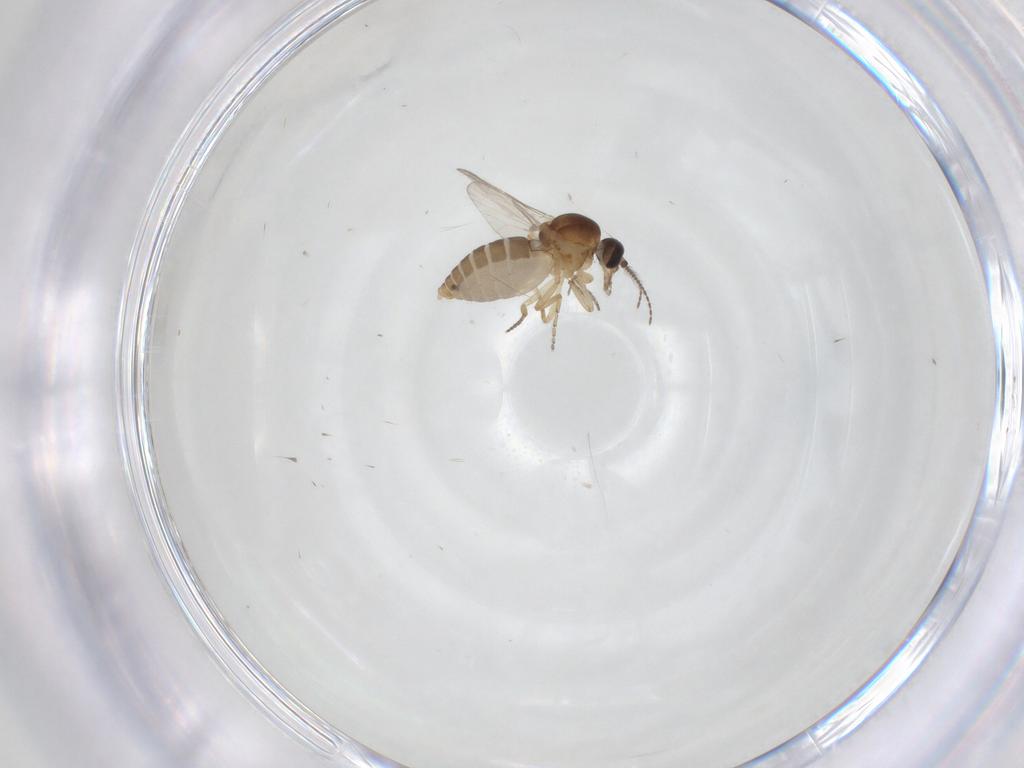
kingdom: Animalia
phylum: Arthropoda
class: Insecta
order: Diptera
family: Ceratopogonidae
